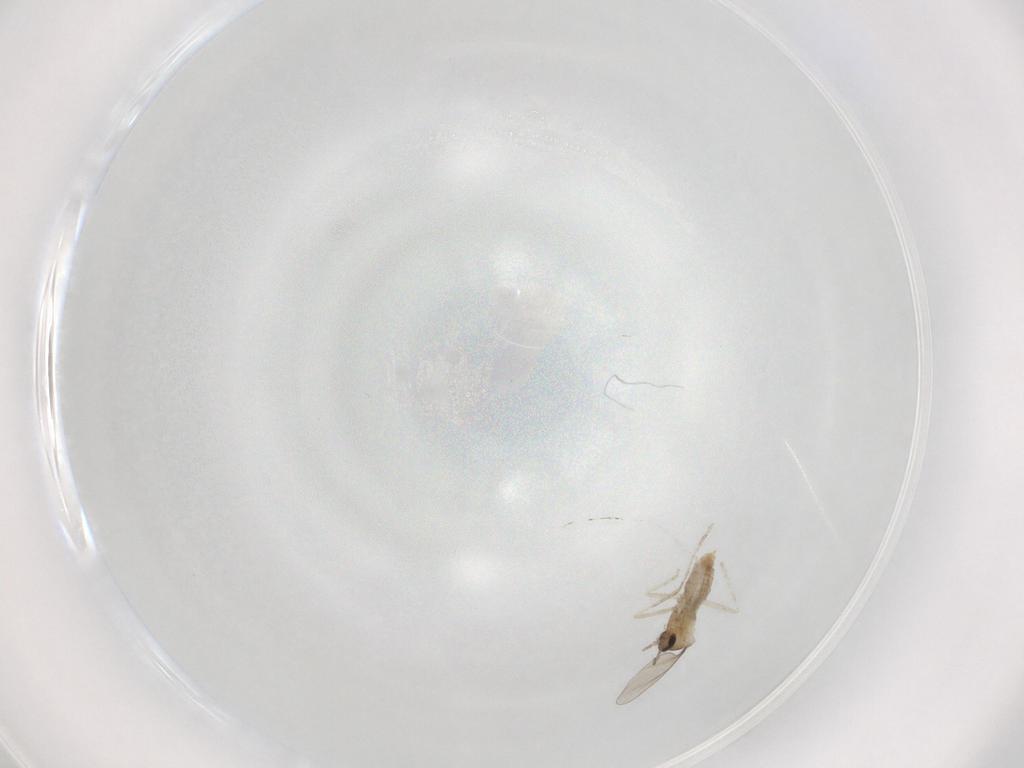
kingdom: Animalia
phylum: Arthropoda
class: Insecta
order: Diptera
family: Cecidomyiidae
